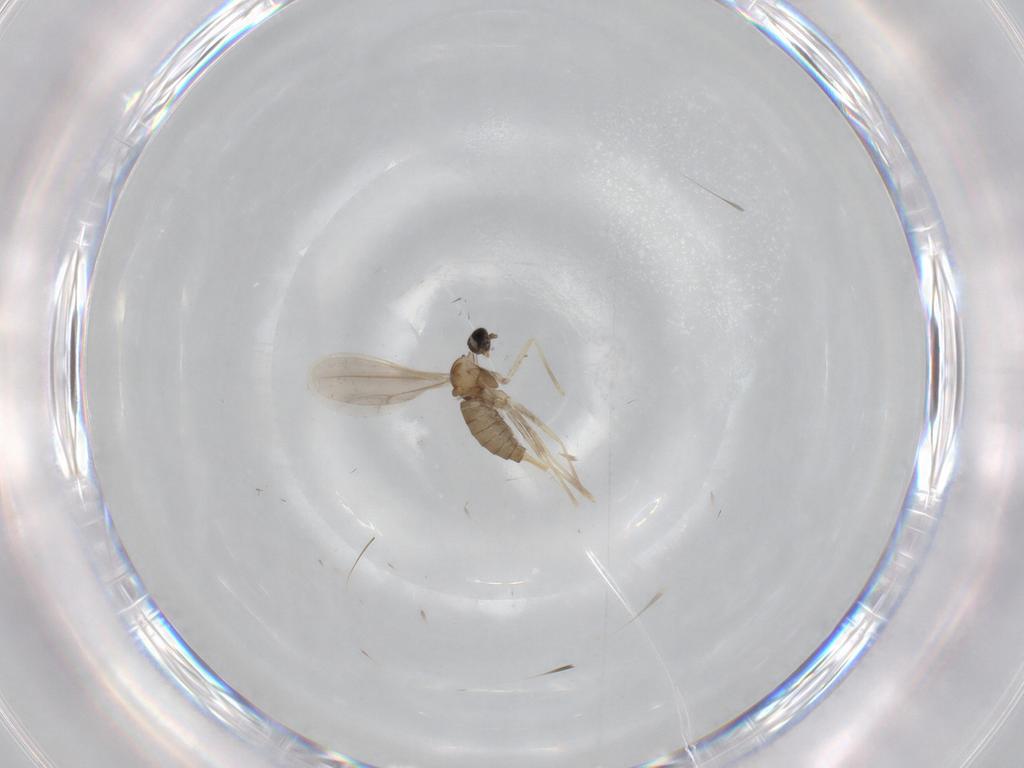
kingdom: Animalia
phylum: Arthropoda
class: Insecta
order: Diptera
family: Cecidomyiidae
